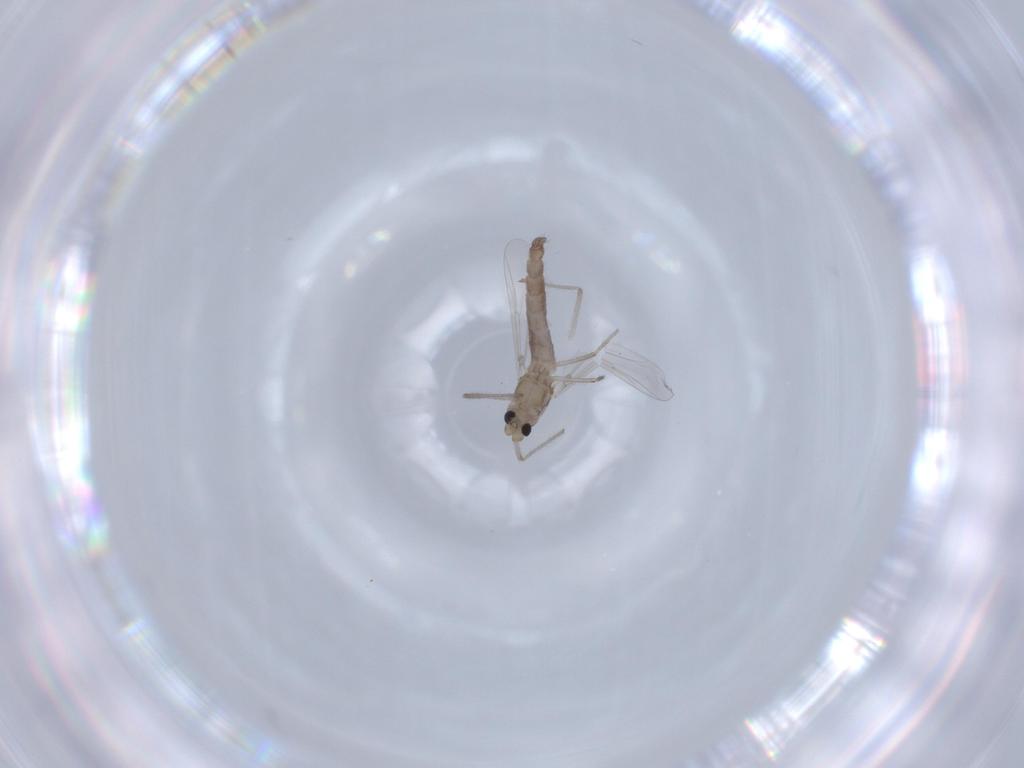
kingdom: Animalia
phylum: Arthropoda
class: Insecta
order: Diptera
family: Chironomidae
